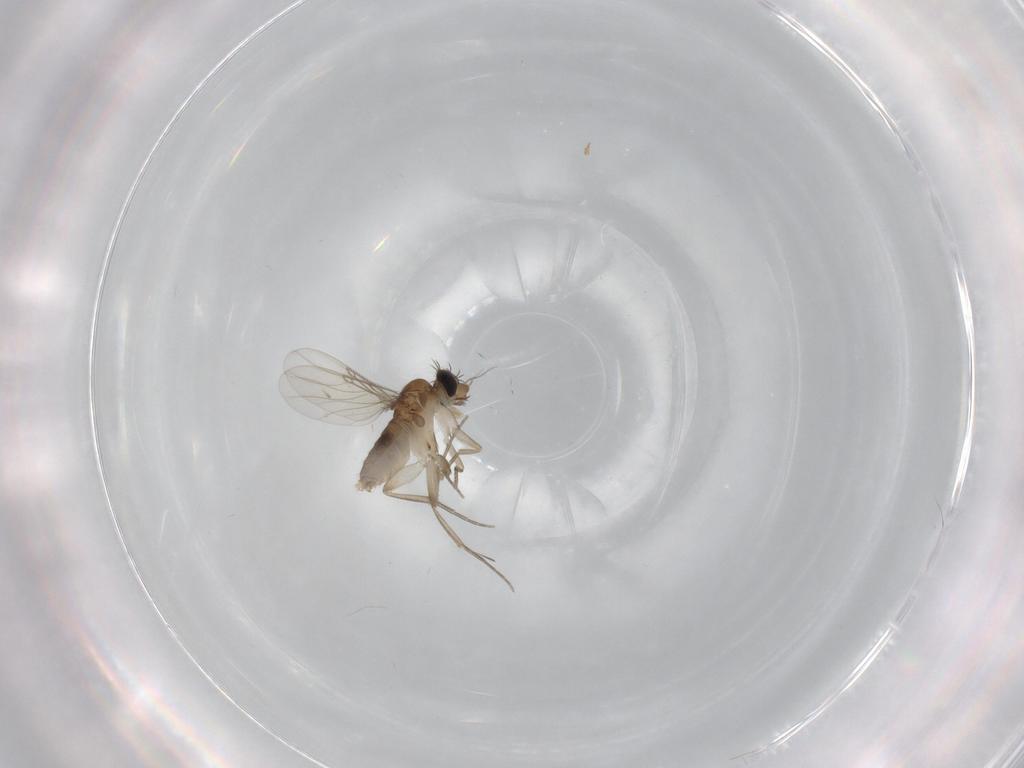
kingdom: Animalia
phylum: Arthropoda
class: Insecta
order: Diptera
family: Phoridae
